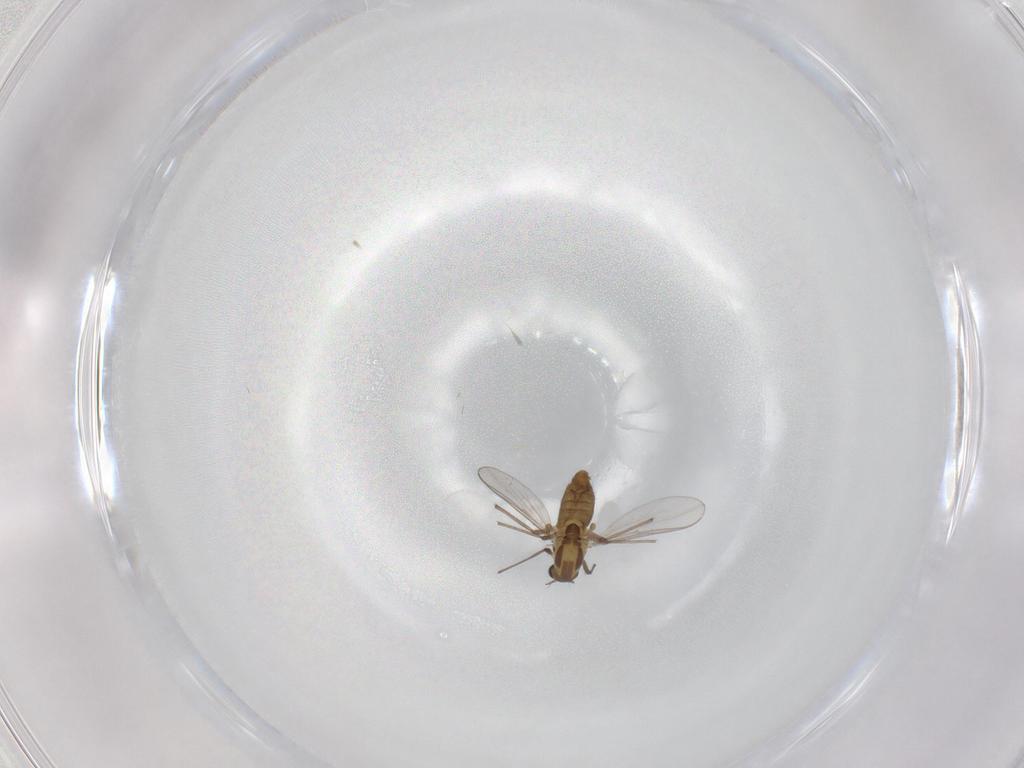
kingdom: Animalia
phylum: Arthropoda
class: Insecta
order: Diptera
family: Chironomidae
